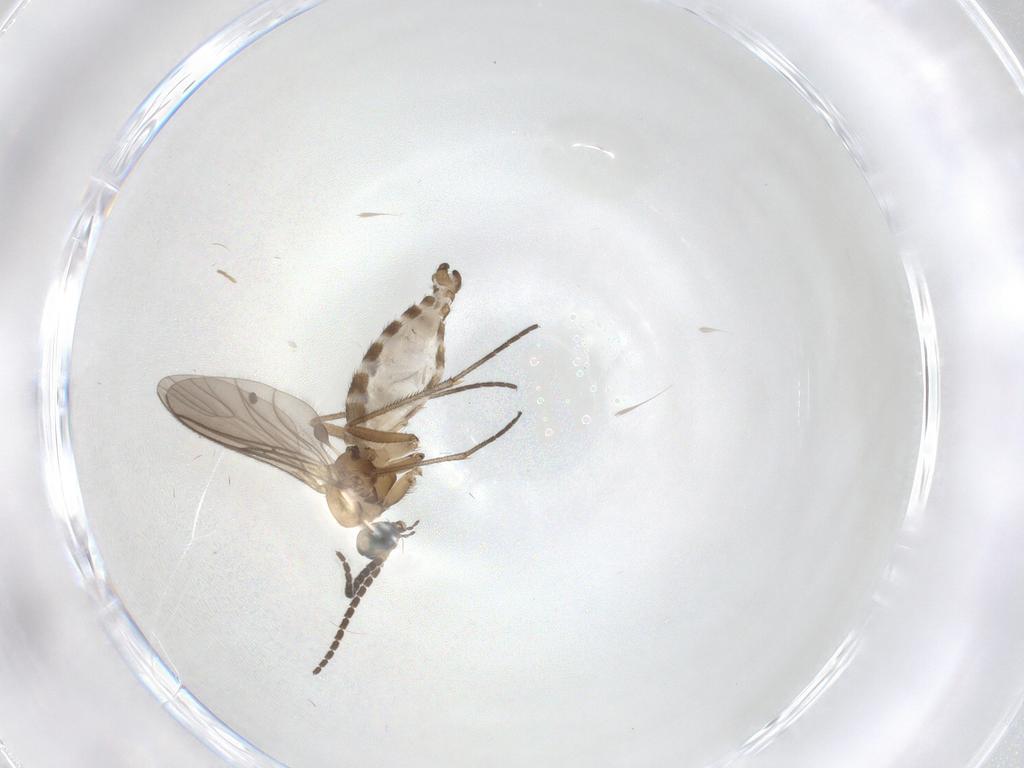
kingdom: Animalia
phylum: Arthropoda
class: Insecta
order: Diptera
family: Sciaridae
